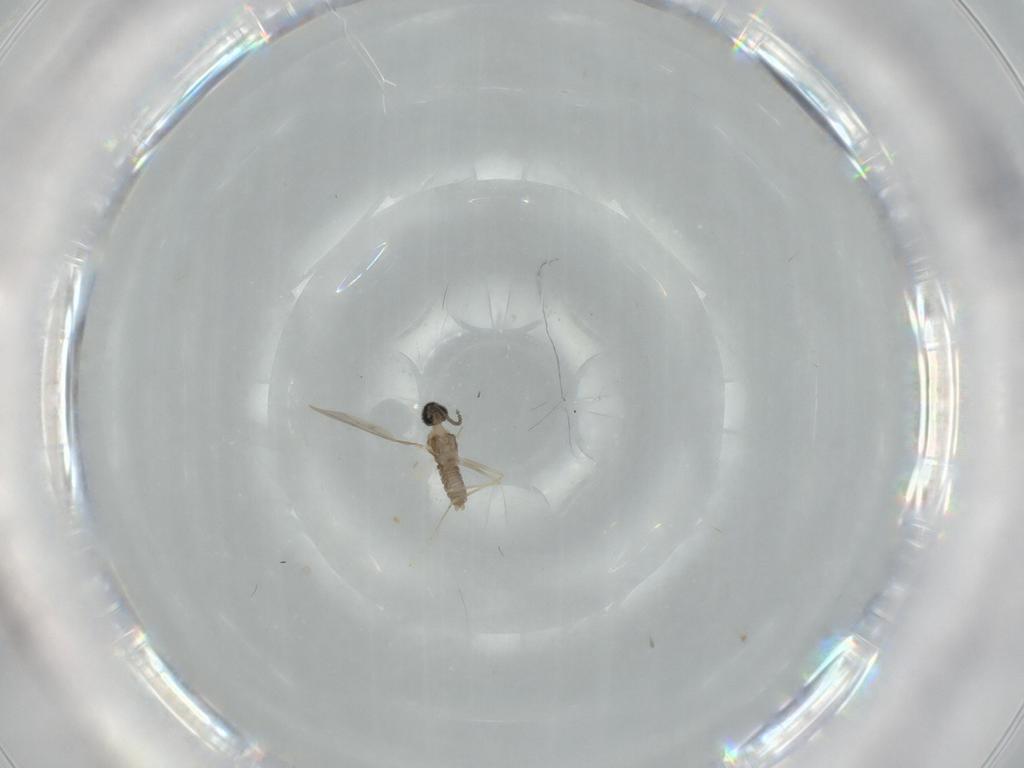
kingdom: Animalia
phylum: Arthropoda
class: Insecta
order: Diptera
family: Cecidomyiidae
